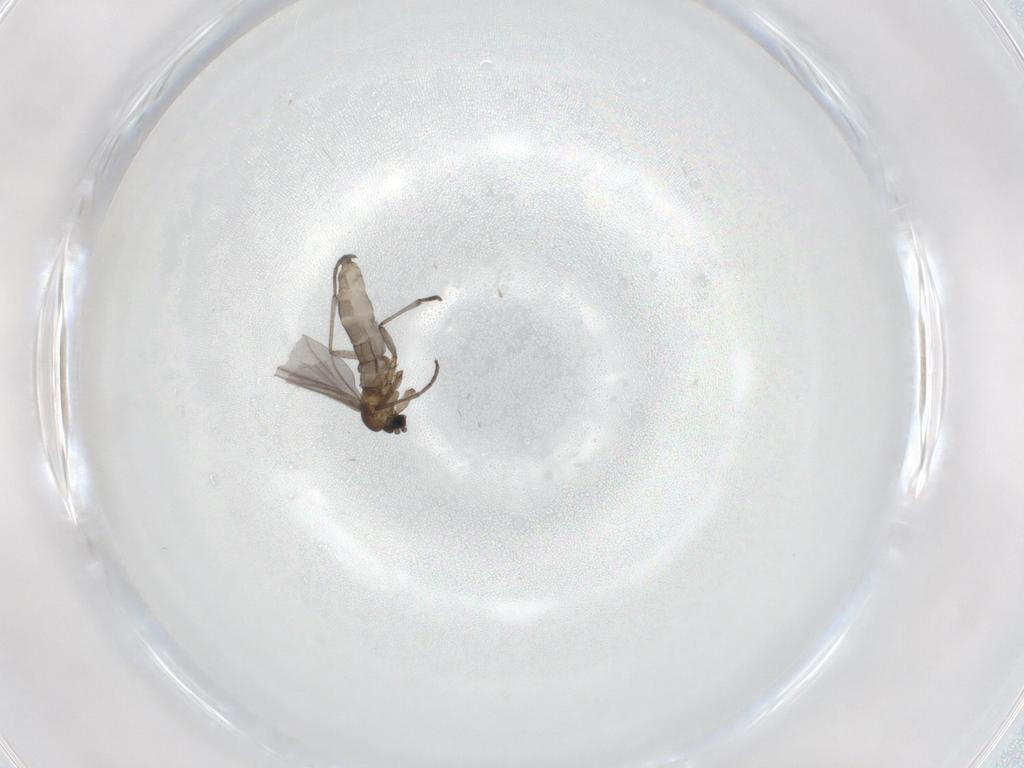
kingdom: Animalia
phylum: Arthropoda
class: Insecta
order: Diptera
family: Sciaridae
